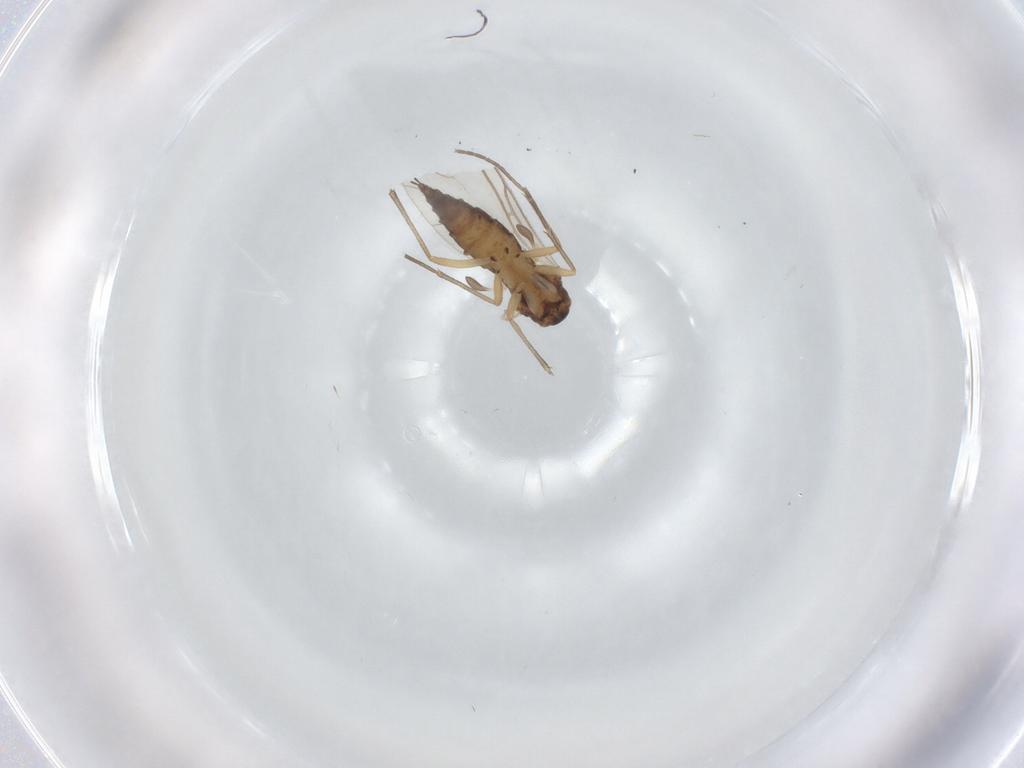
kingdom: Animalia
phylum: Arthropoda
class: Insecta
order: Diptera
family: Sciaridae
